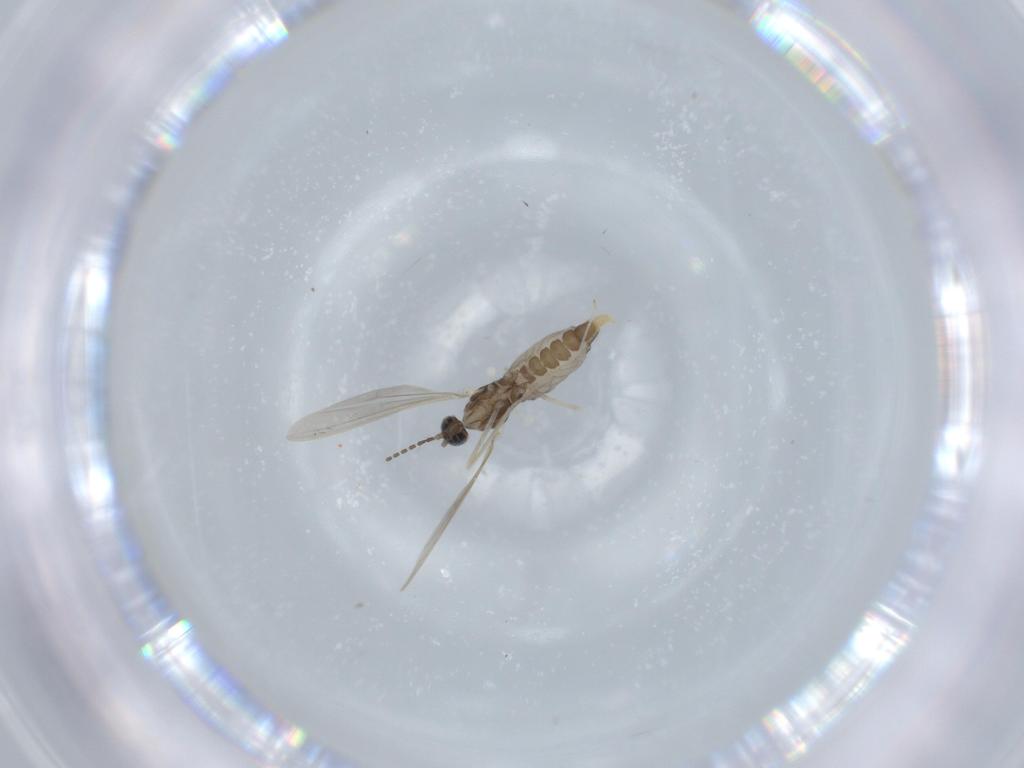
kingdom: Animalia
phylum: Arthropoda
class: Insecta
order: Diptera
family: Cecidomyiidae
